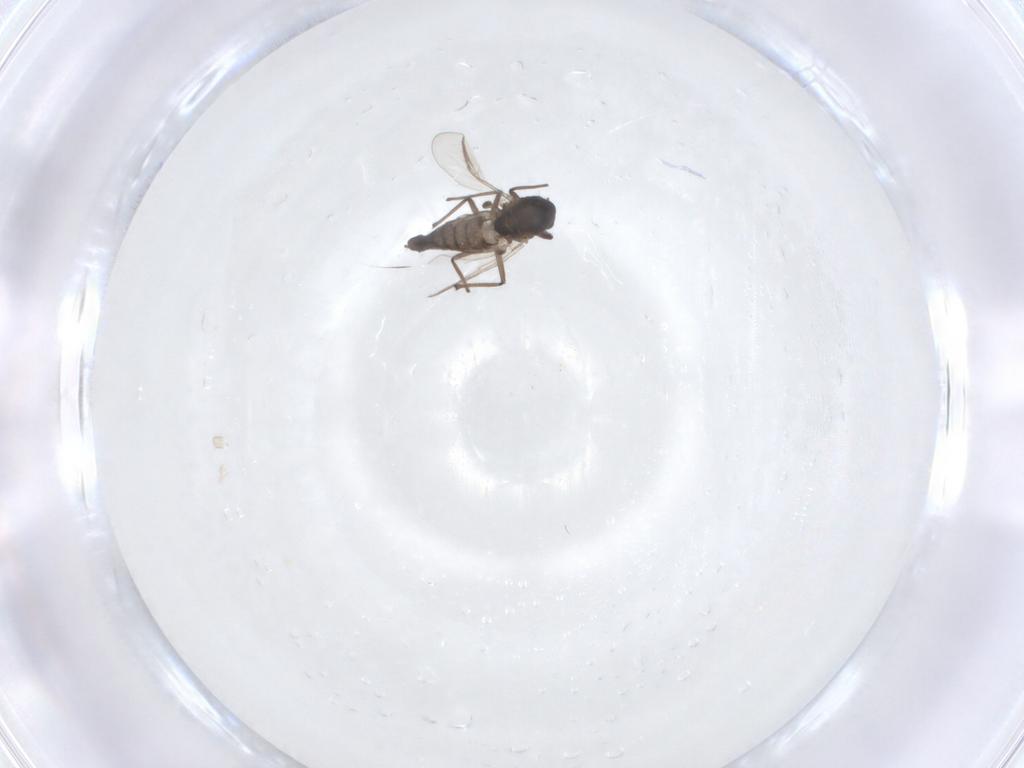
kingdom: Animalia
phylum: Arthropoda
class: Insecta
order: Diptera
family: Chironomidae
